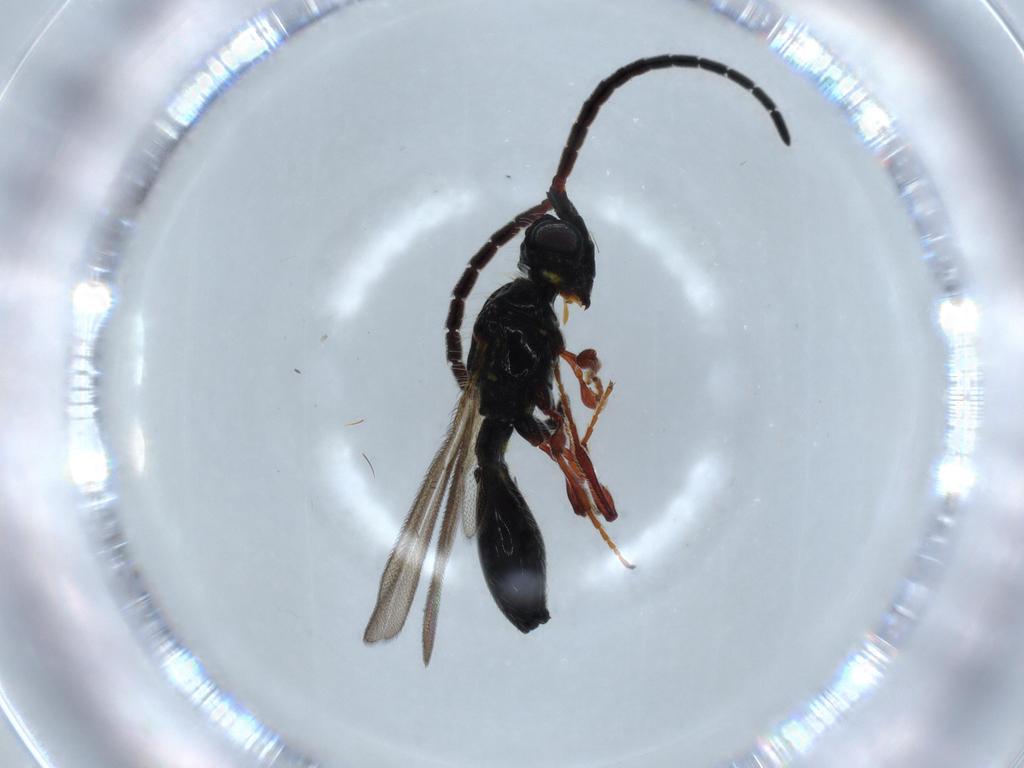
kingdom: Animalia
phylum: Arthropoda
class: Insecta
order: Hymenoptera
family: Diapriidae
